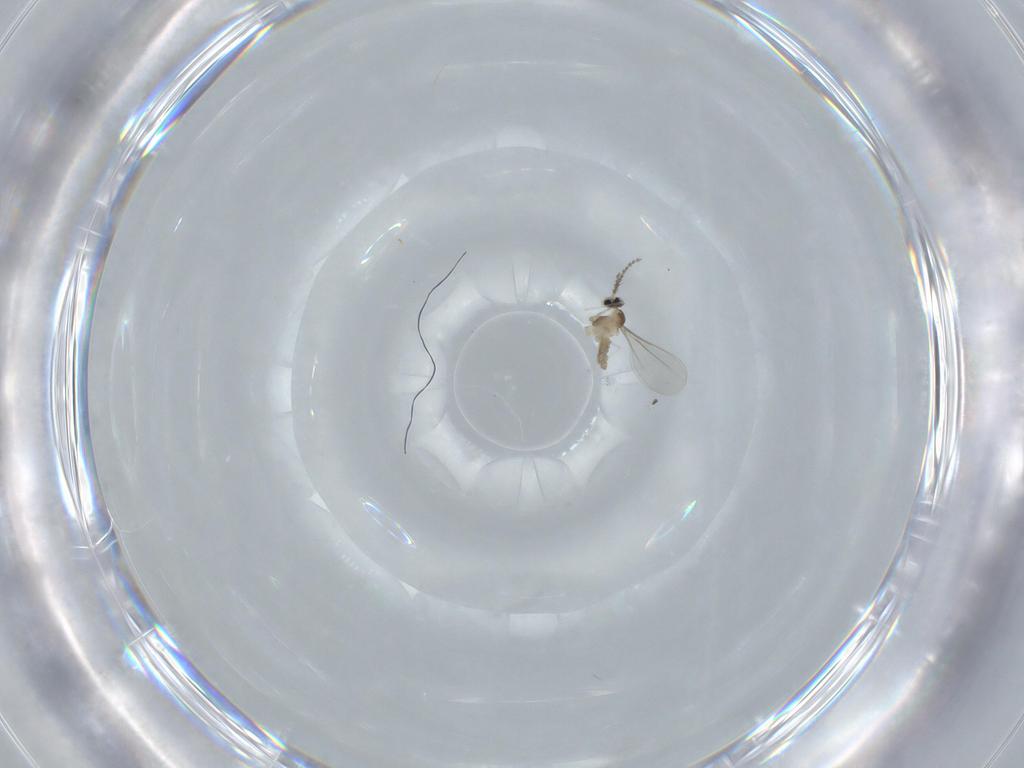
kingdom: Animalia
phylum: Arthropoda
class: Insecta
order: Diptera
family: Cecidomyiidae
